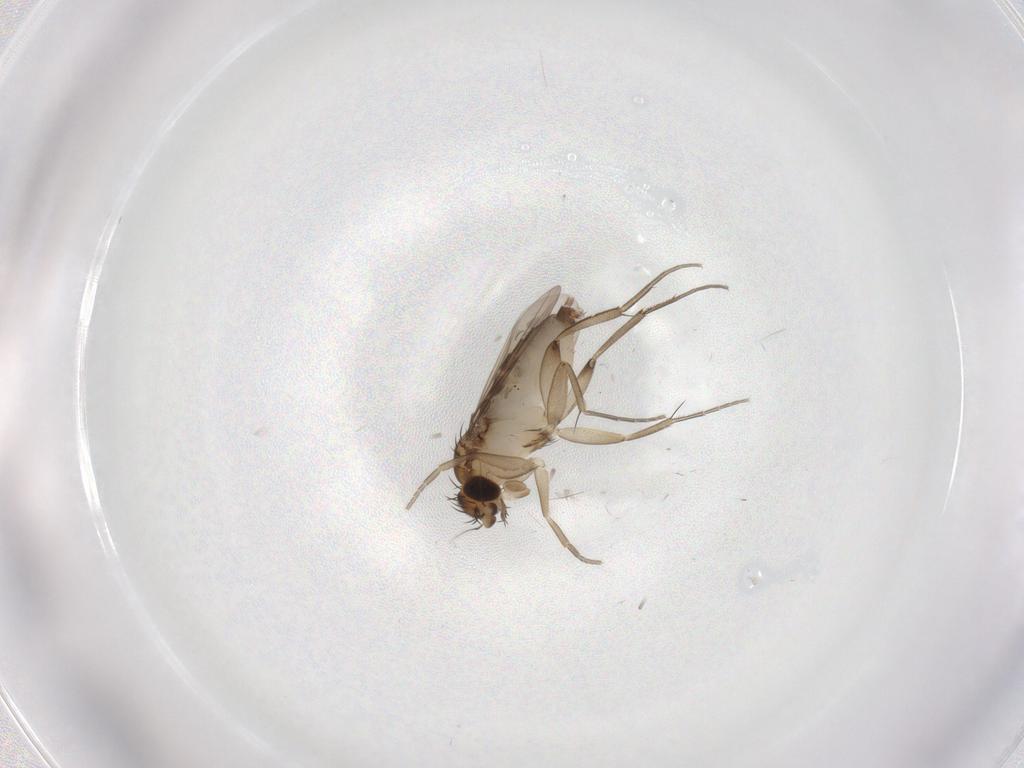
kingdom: Animalia
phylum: Arthropoda
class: Insecta
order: Diptera
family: Phoridae
